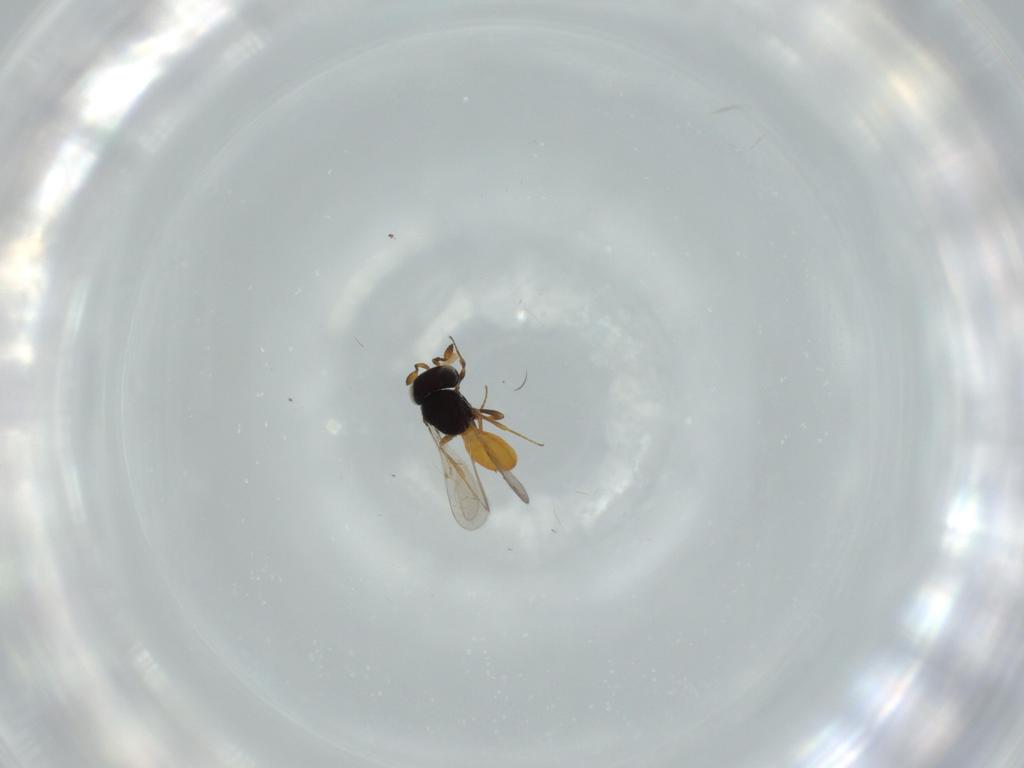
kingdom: Animalia
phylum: Arthropoda
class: Insecta
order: Hymenoptera
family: Scelionidae
